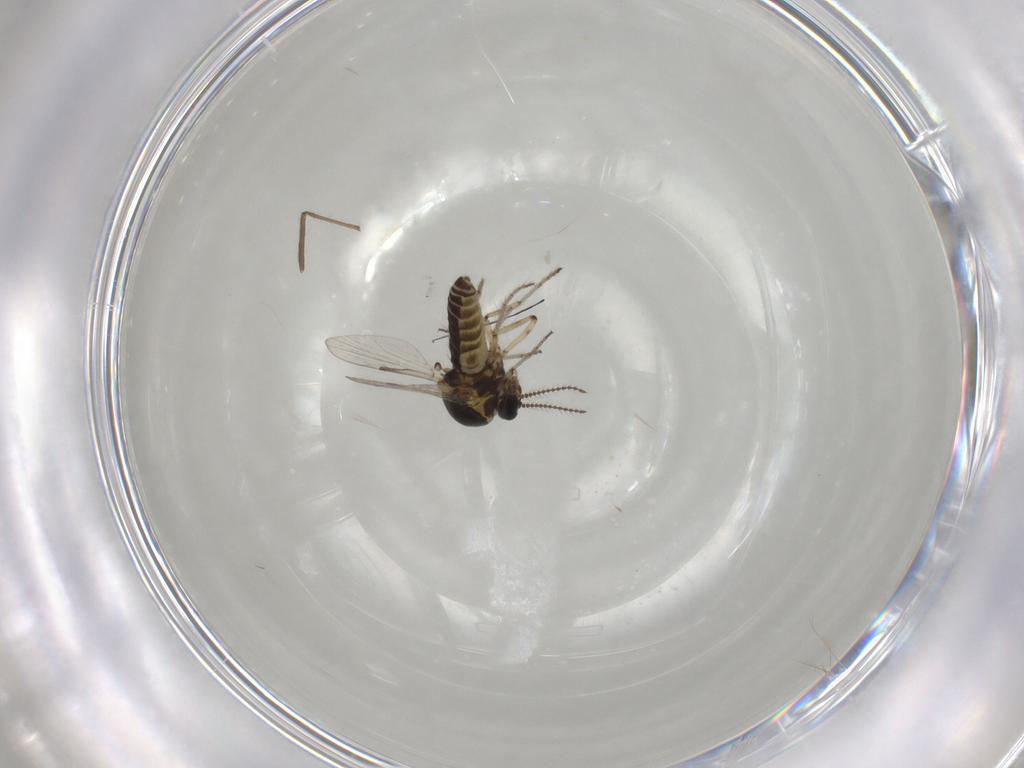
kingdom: Animalia
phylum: Arthropoda
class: Insecta
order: Diptera
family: Ceratopogonidae
